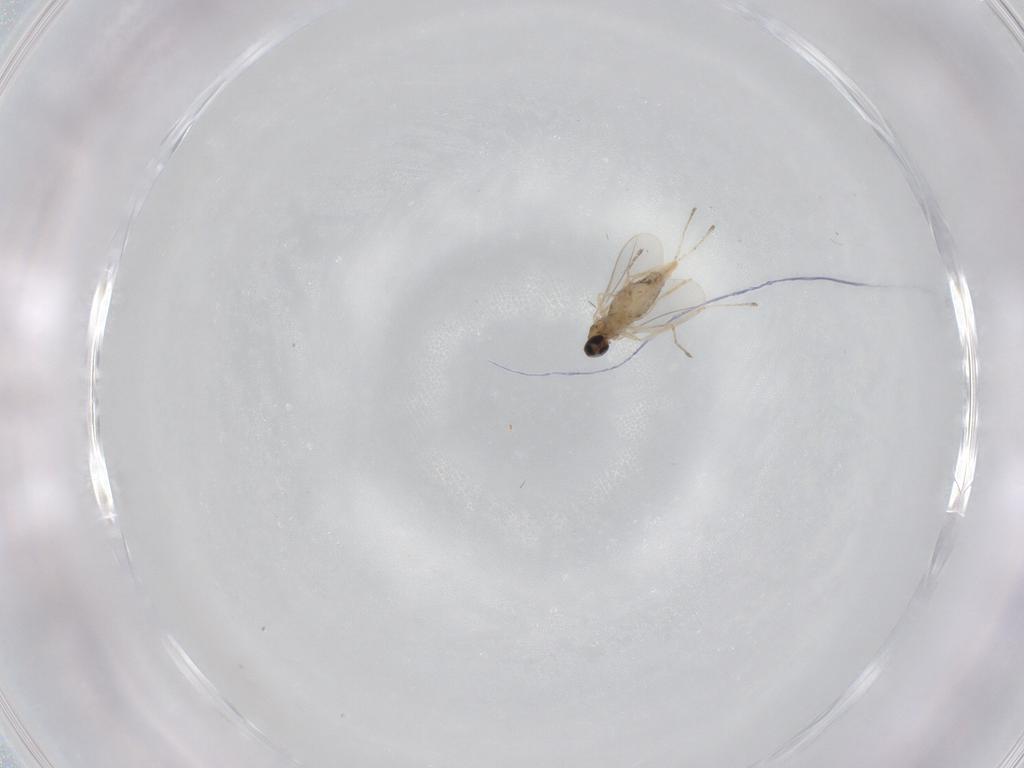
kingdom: Animalia
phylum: Arthropoda
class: Insecta
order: Diptera
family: Cecidomyiidae
